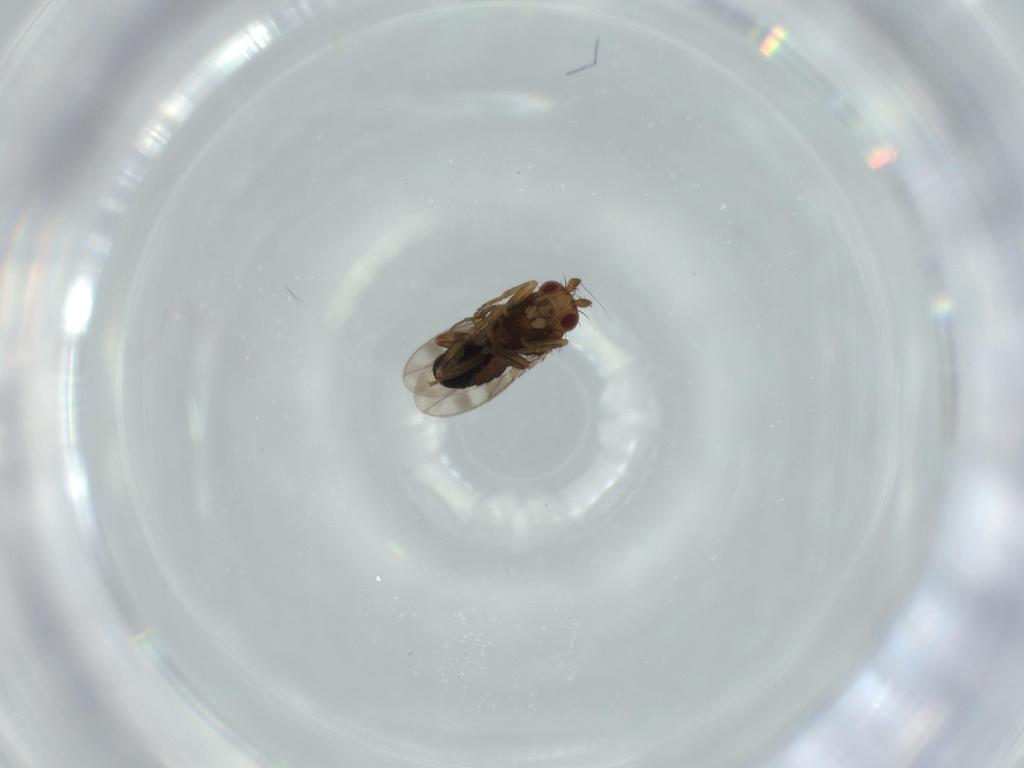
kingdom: Animalia
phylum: Arthropoda
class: Insecta
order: Diptera
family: Sphaeroceridae
